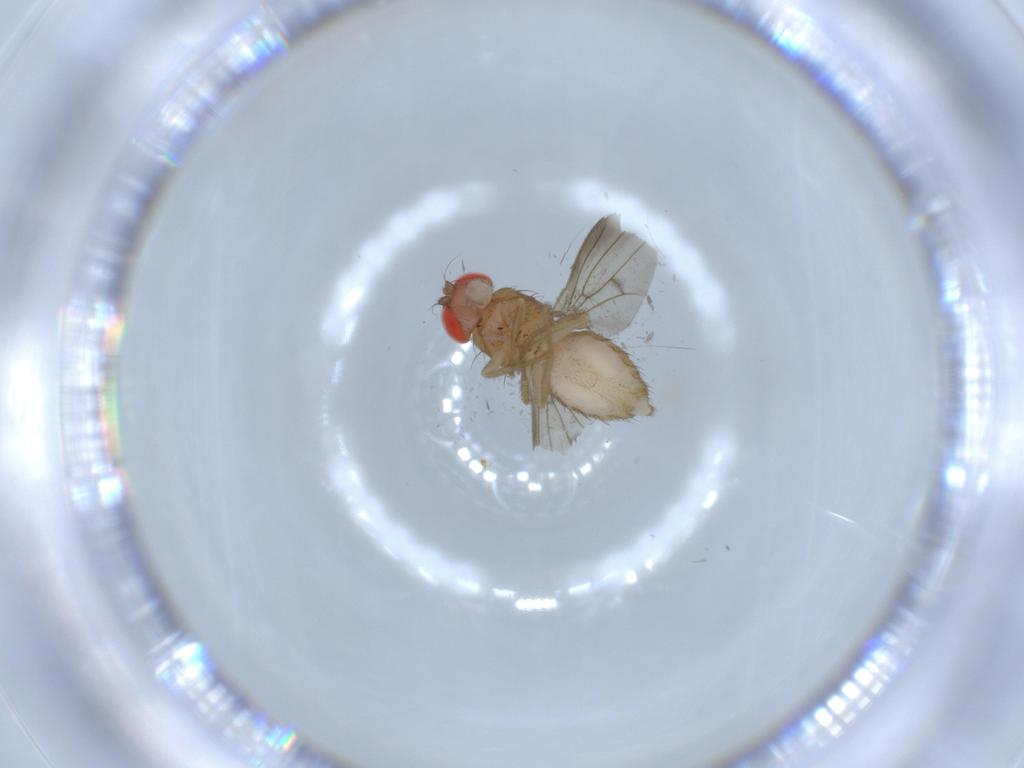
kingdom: Animalia
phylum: Arthropoda
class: Insecta
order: Diptera
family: Drosophilidae
